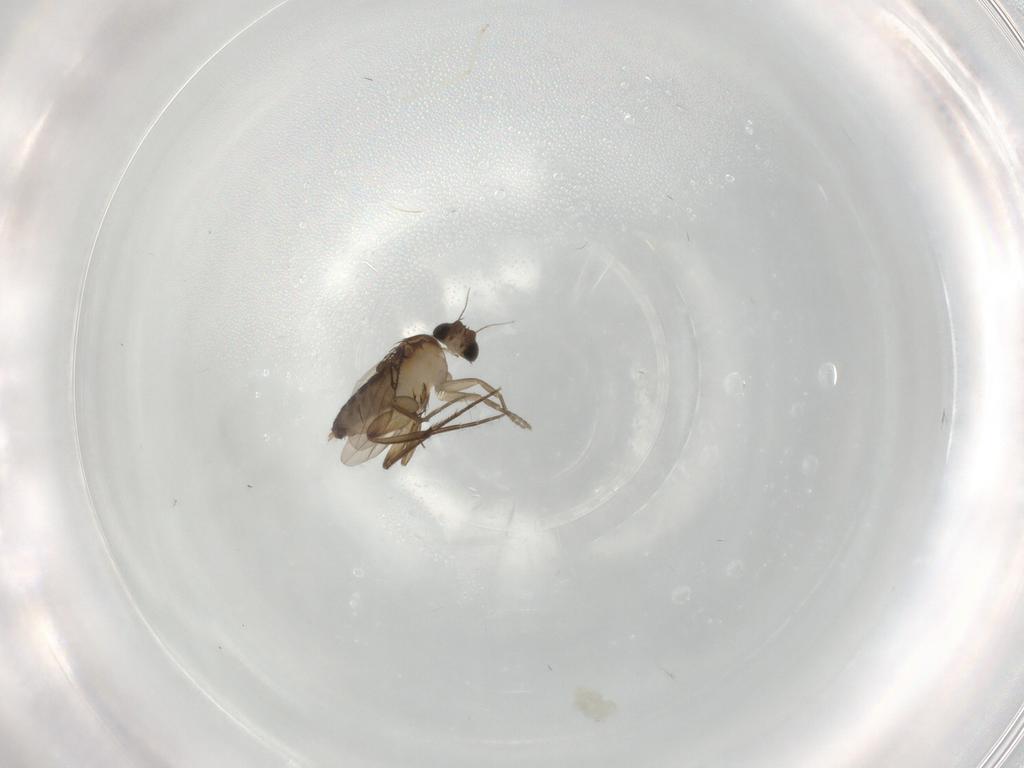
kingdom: Animalia
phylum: Arthropoda
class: Insecta
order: Diptera
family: Phoridae
